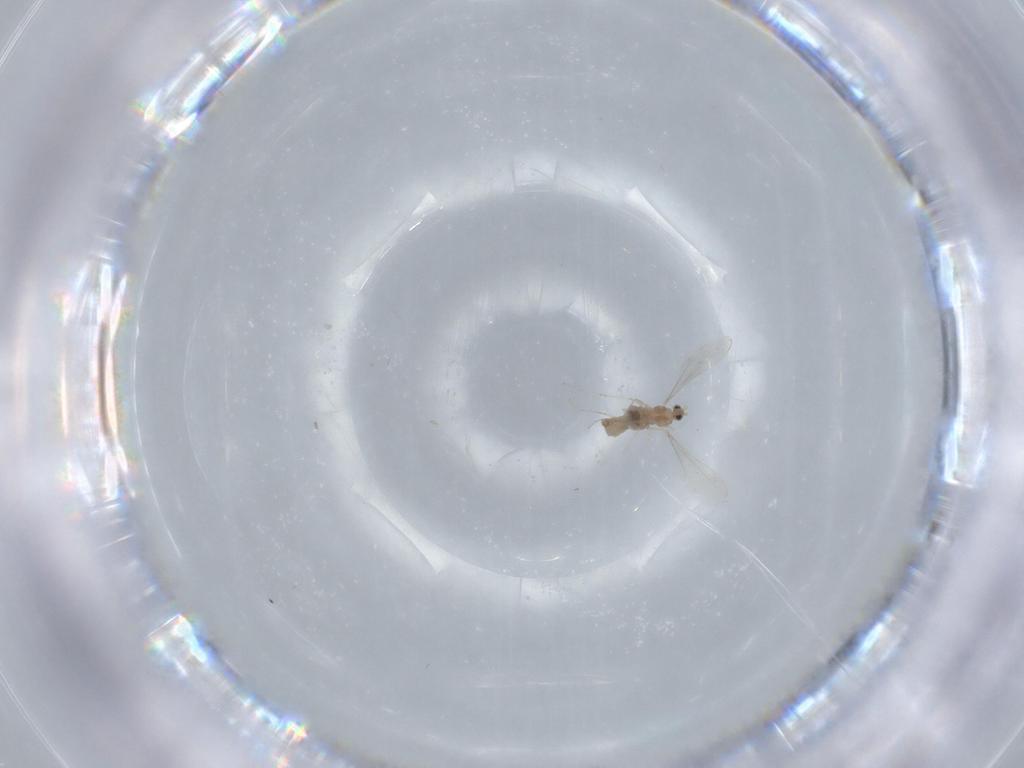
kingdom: Animalia
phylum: Arthropoda
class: Insecta
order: Diptera
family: Cecidomyiidae
